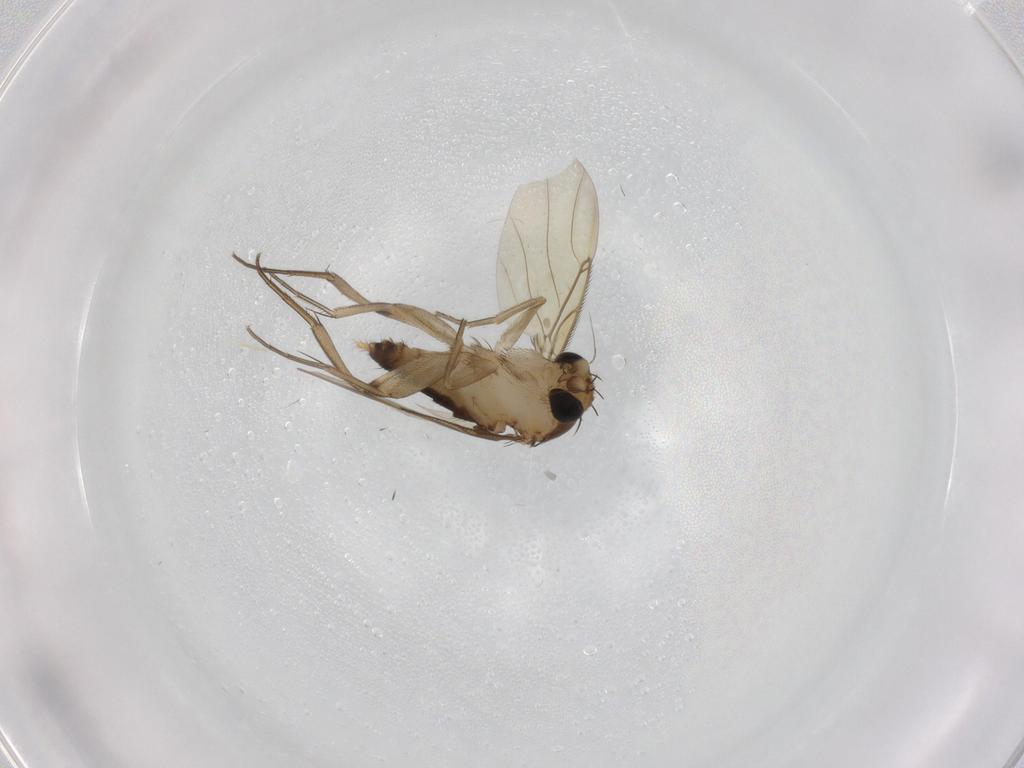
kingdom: Animalia
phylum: Arthropoda
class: Insecta
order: Diptera
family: Phoridae
